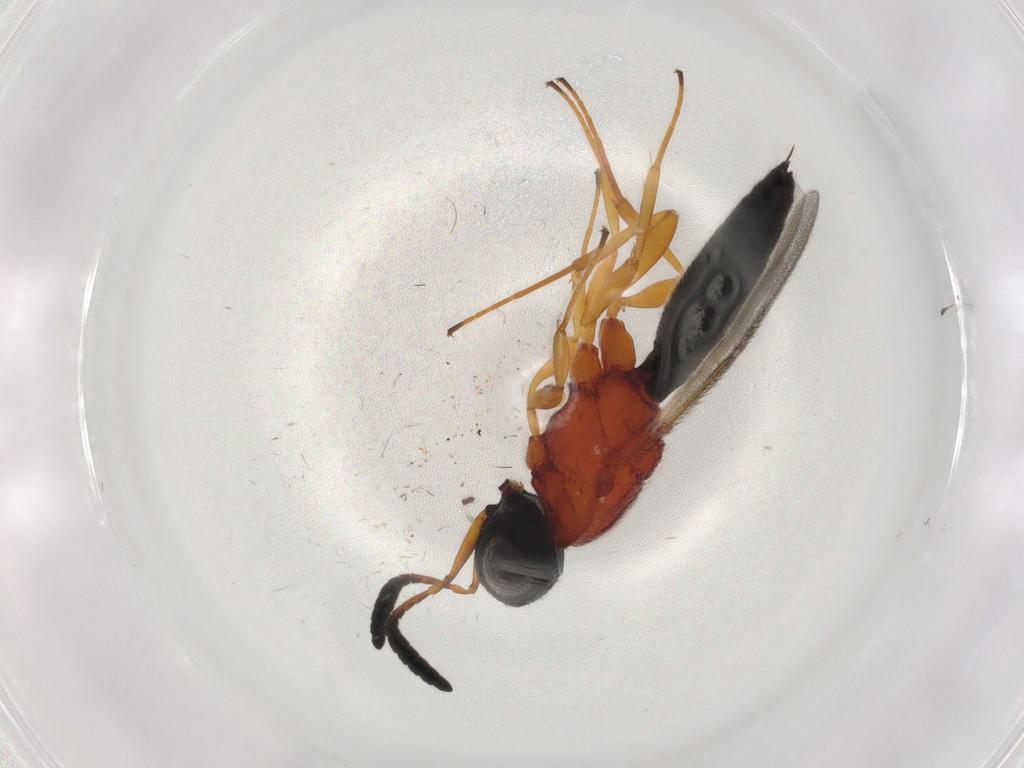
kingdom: Animalia
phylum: Arthropoda
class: Insecta
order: Hymenoptera
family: Scelionidae
